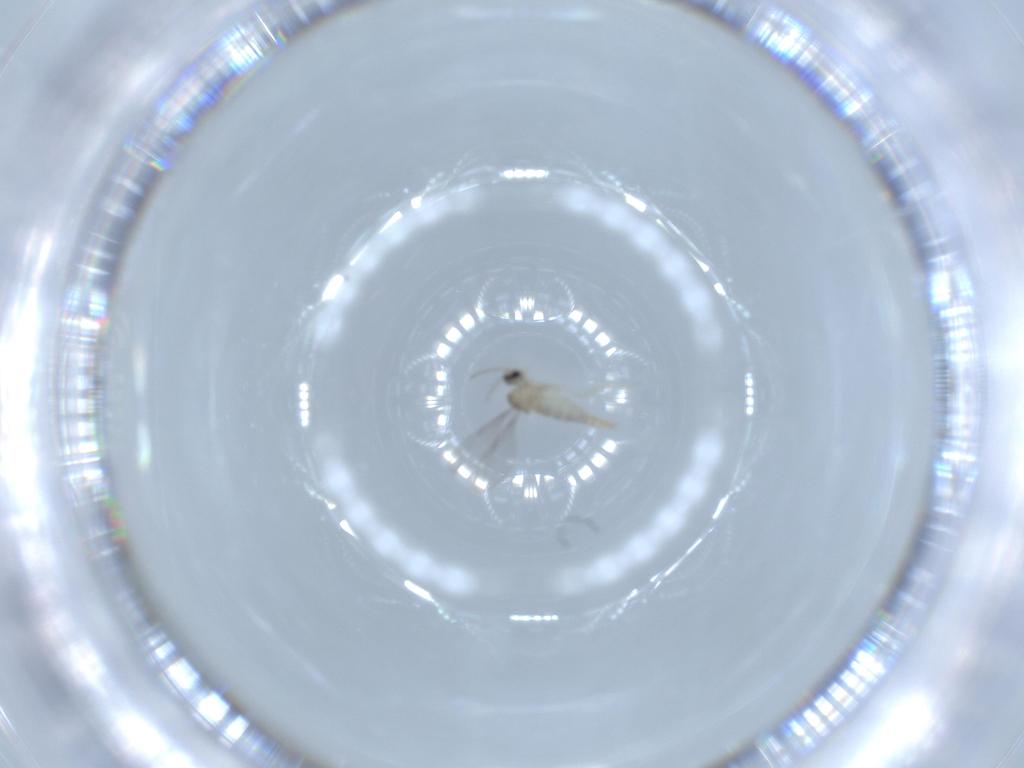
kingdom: Animalia
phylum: Arthropoda
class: Insecta
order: Diptera
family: Cecidomyiidae
